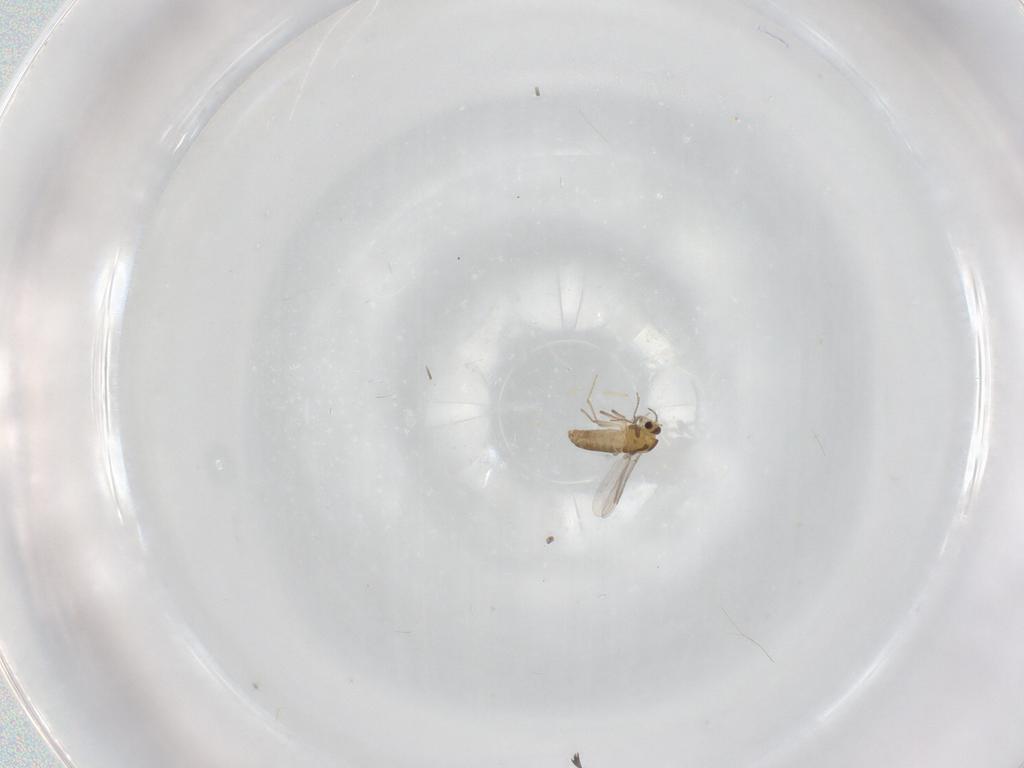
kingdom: Animalia
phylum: Arthropoda
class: Insecta
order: Diptera
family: Chironomidae
